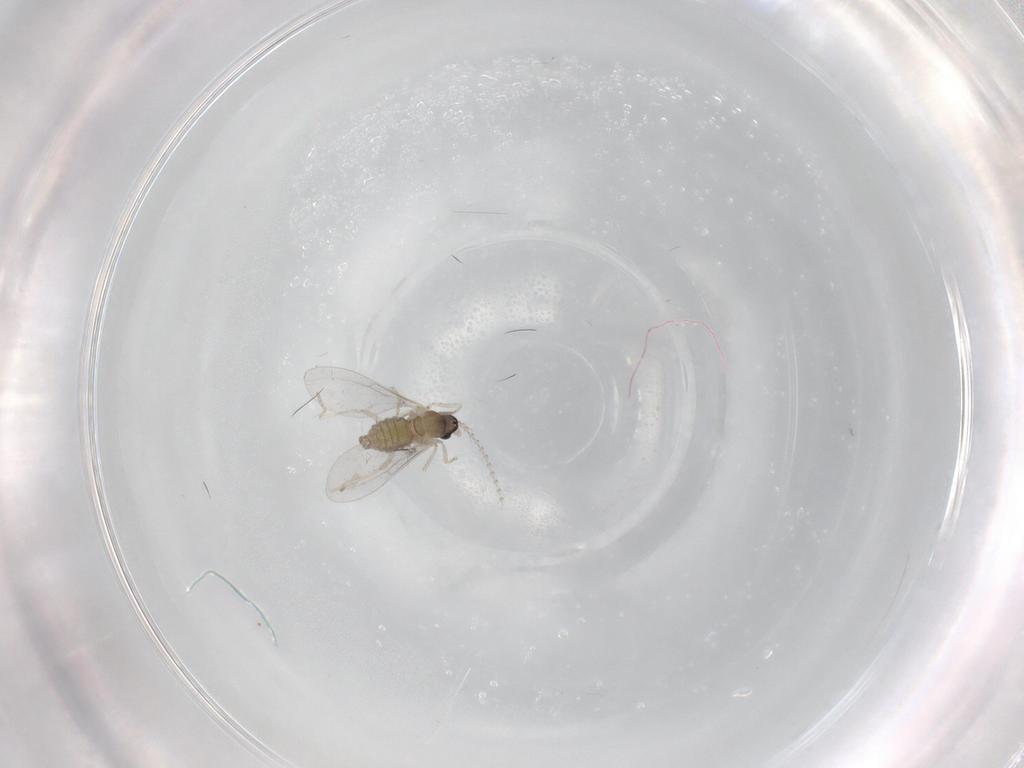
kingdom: Animalia
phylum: Arthropoda
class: Insecta
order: Diptera
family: Cecidomyiidae
